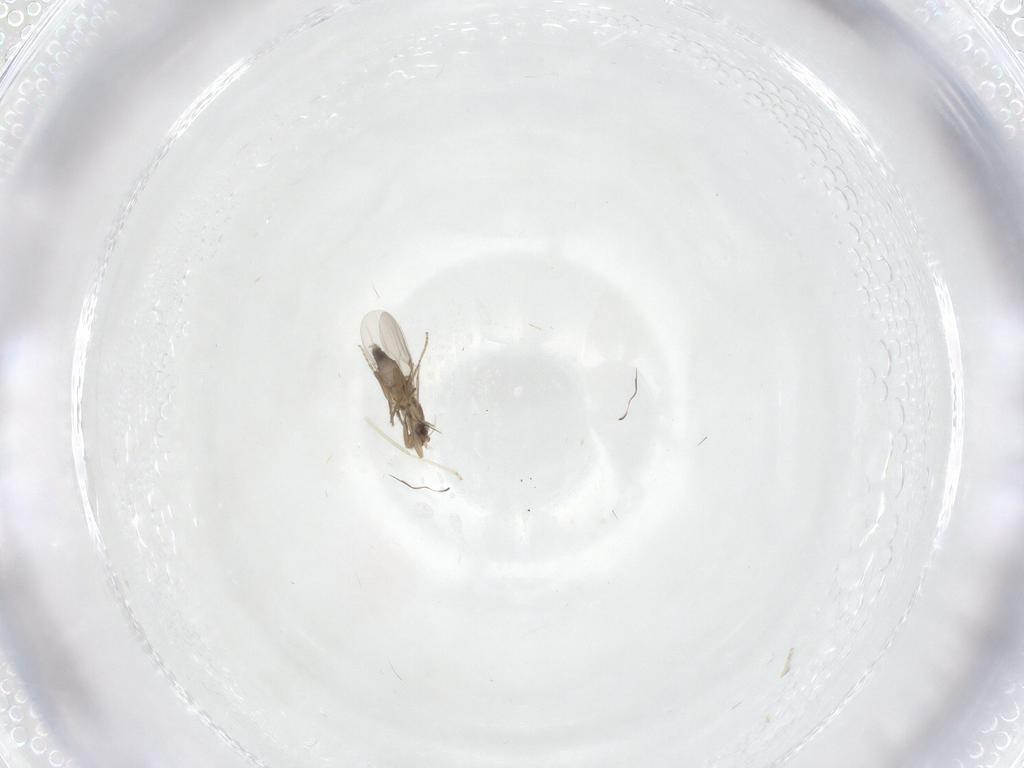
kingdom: Animalia
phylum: Arthropoda
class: Insecta
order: Diptera
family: Phoridae
